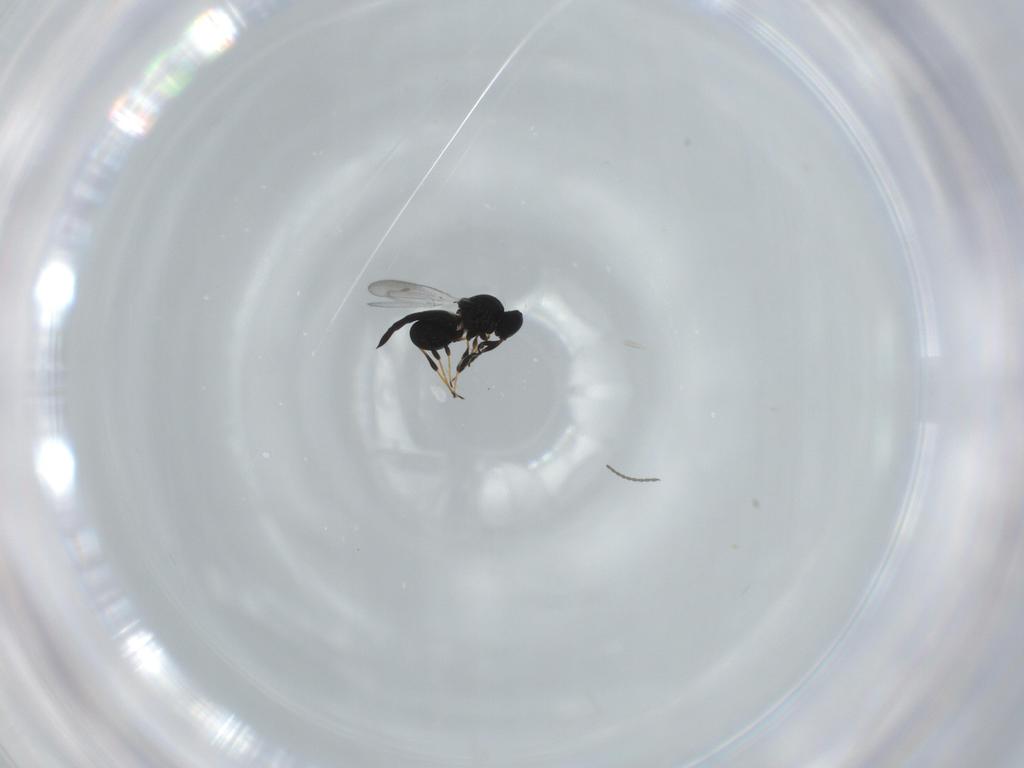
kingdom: Animalia
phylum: Arthropoda
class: Insecta
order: Hymenoptera
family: Platygastridae
